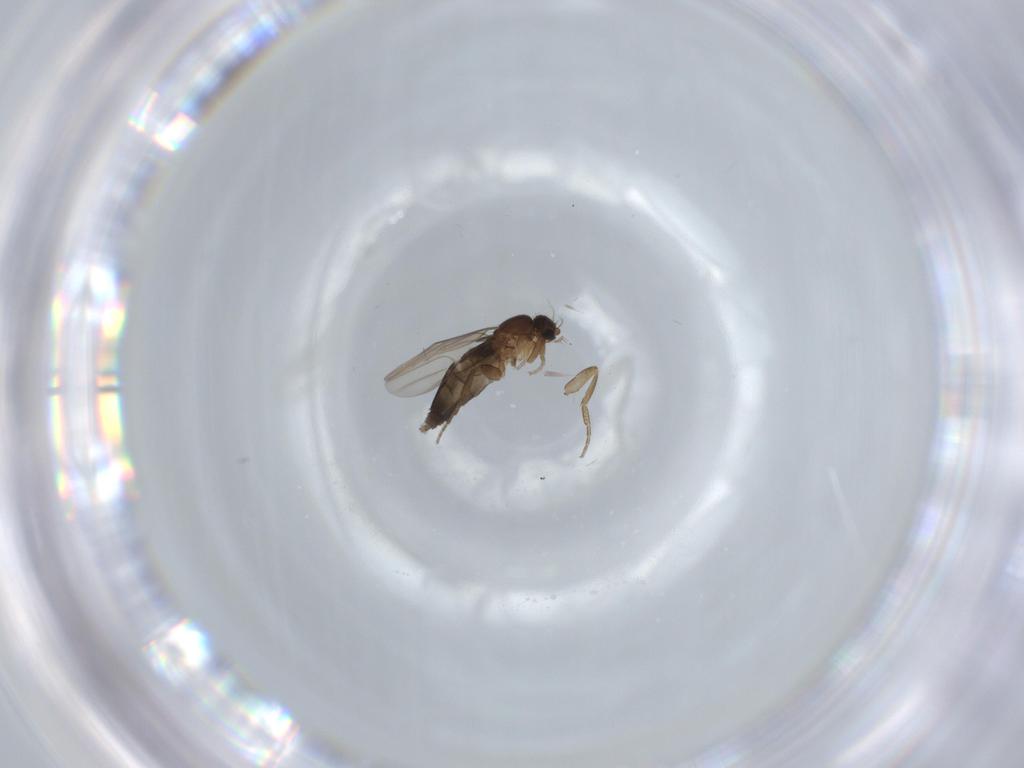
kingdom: Animalia
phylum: Arthropoda
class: Insecta
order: Diptera
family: Phoridae
